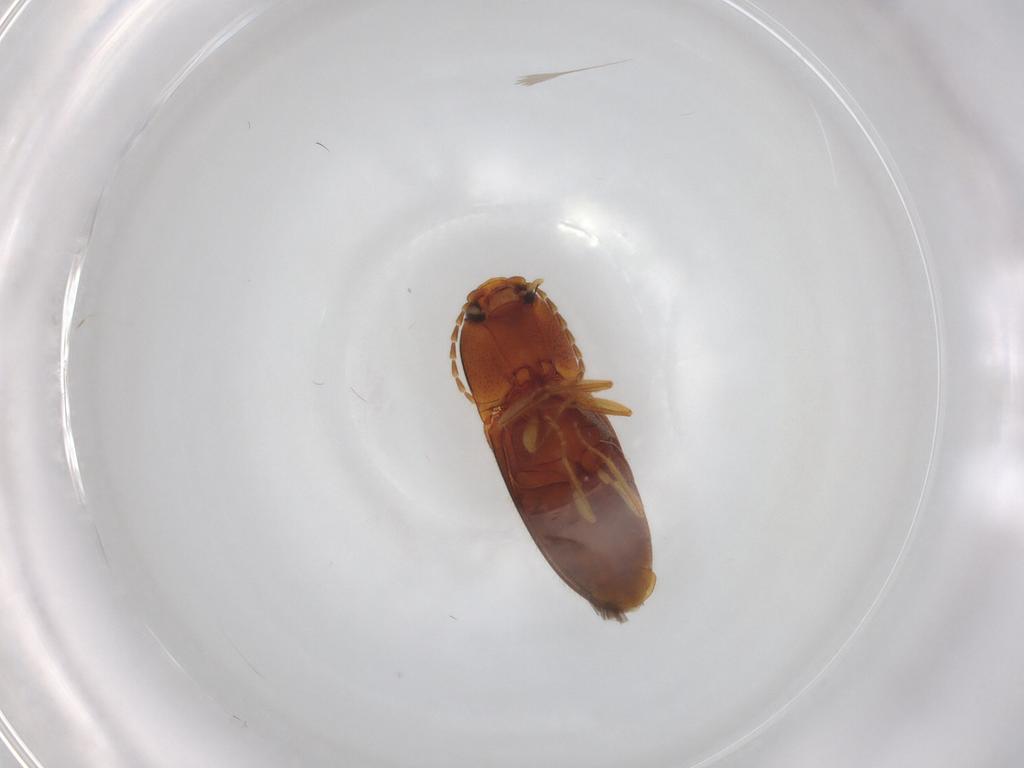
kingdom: Animalia
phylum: Arthropoda
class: Insecta
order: Coleoptera
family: Elateridae
